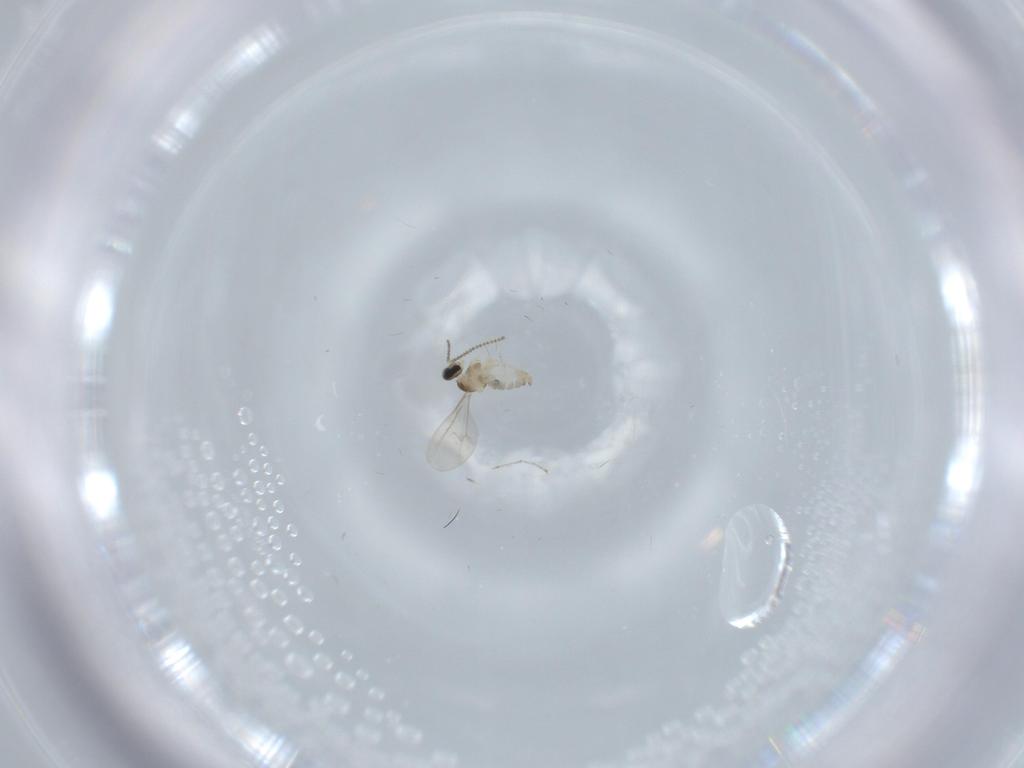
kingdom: Animalia
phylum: Arthropoda
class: Insecta
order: Diptera
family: Cecidomyiidae
